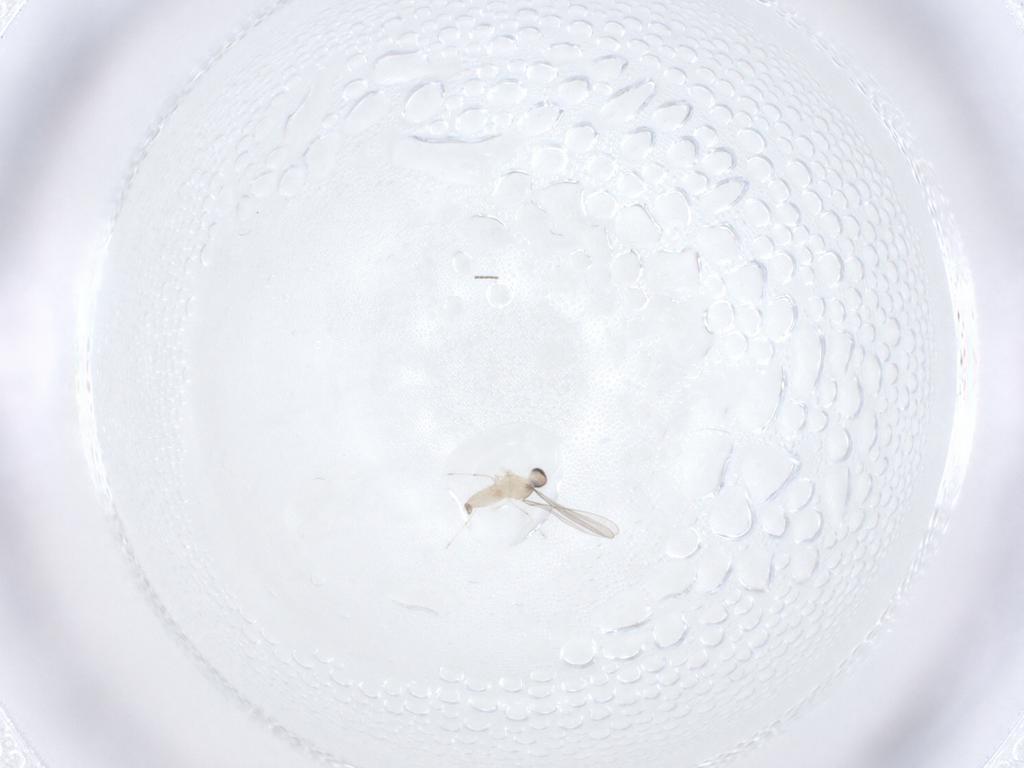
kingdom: Animalia
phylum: Arthropoda
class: Insecta
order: Diptera
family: Cecidomyiidae
